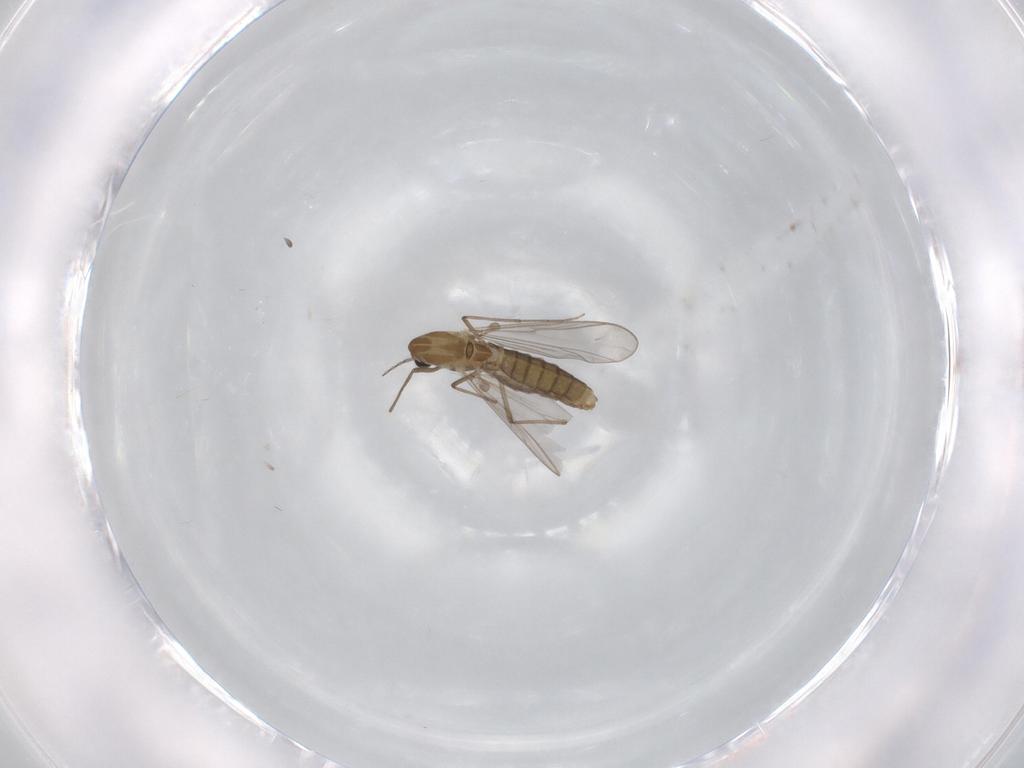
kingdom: Animalia
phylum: Arthropoda
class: Insecta
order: Diptera
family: Chironomidae
